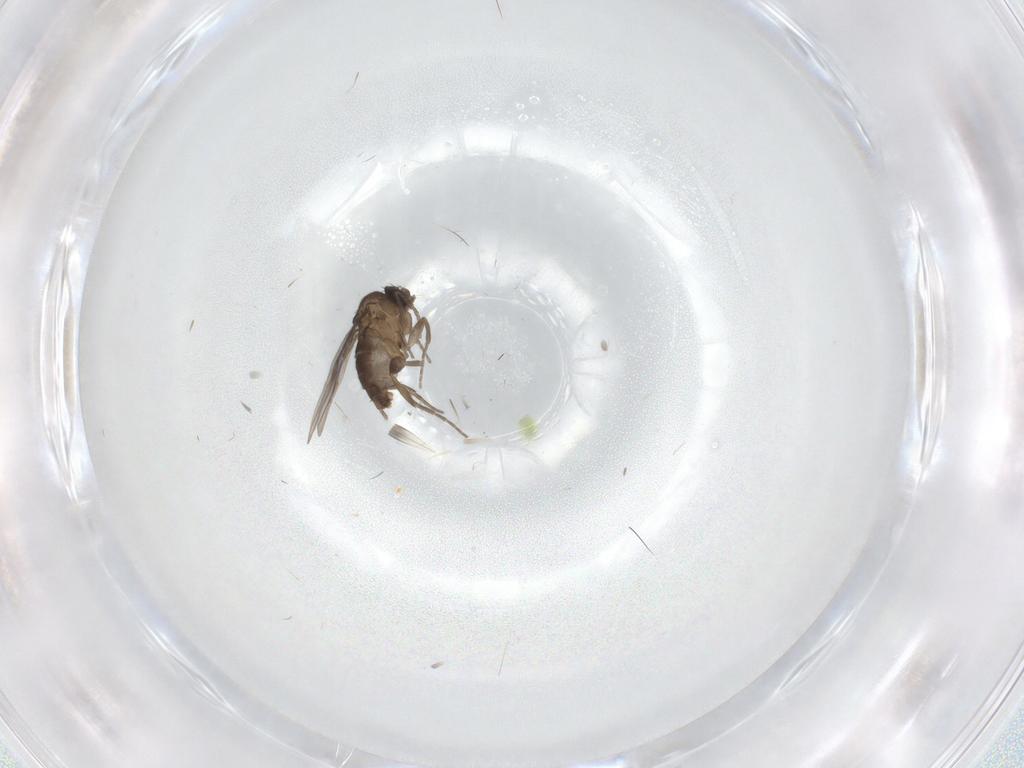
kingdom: Animalia
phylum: Arthropoda
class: Insecta
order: Diptera
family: Phoridae
